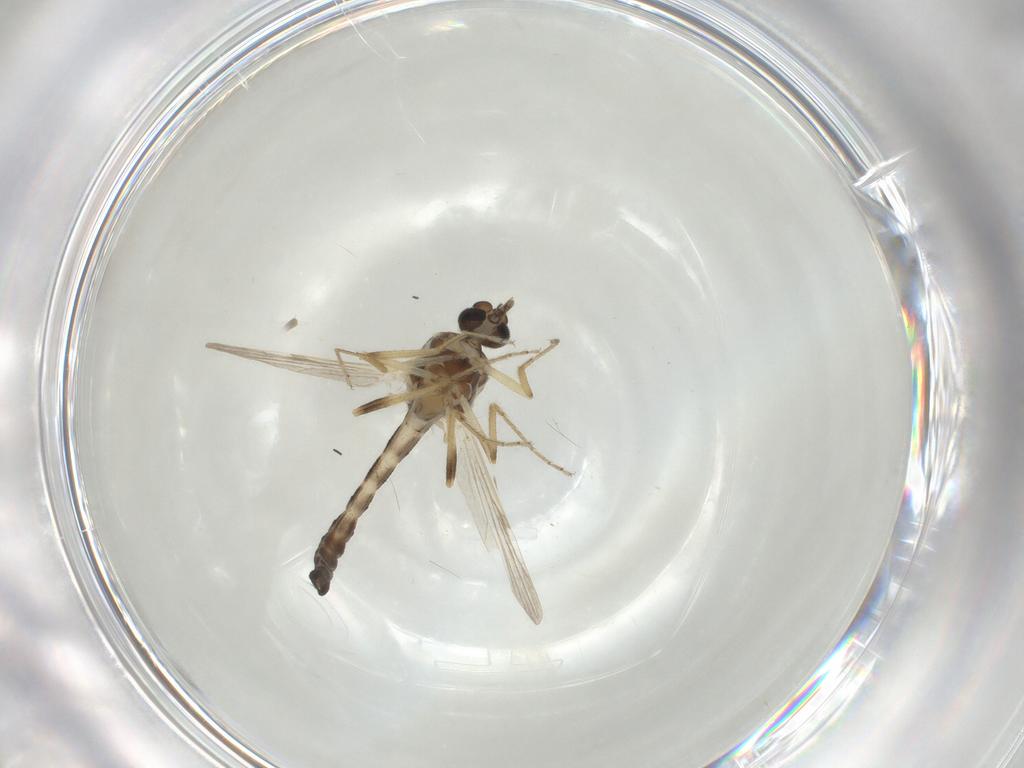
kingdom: Animalia
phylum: Arthropoda
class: Insecta
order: Diptera
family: Ceratopogonidae
